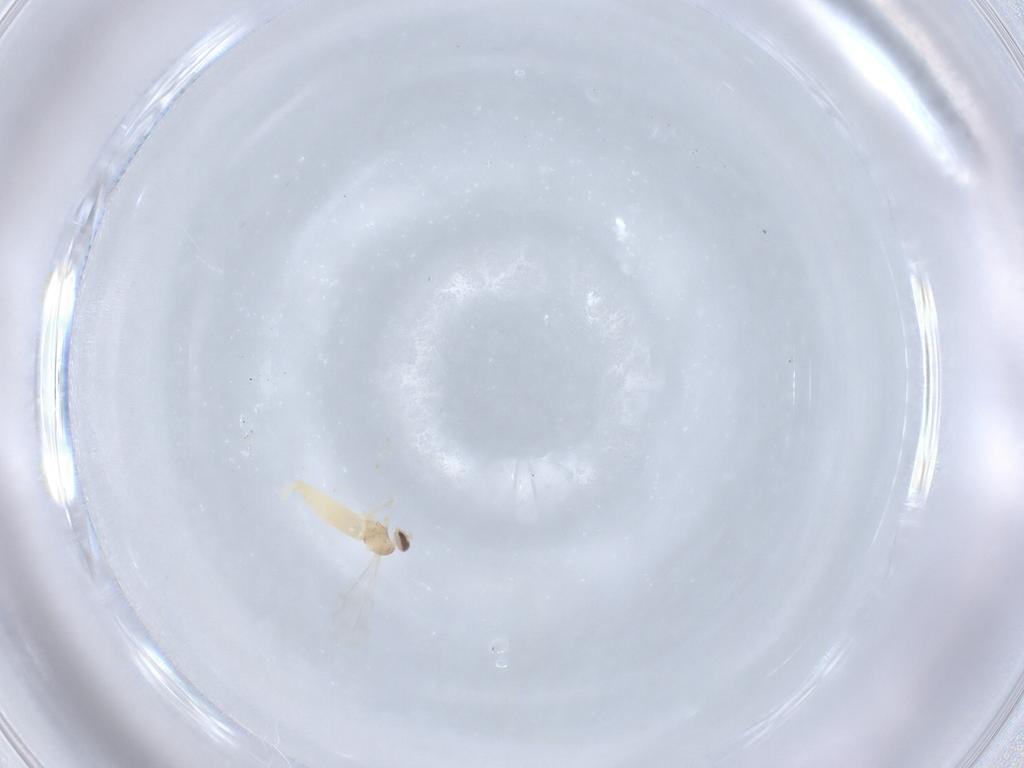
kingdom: Animalia
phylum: Arthropoda
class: Insecta
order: Diptera
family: Cecidomyiidae
